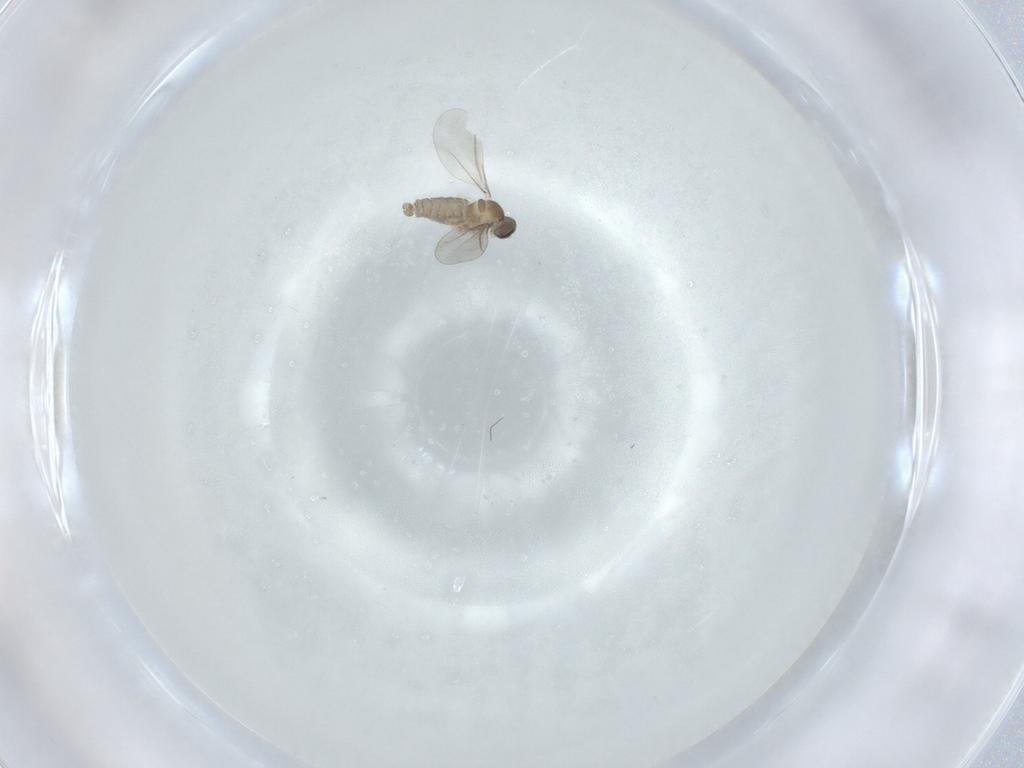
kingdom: Animalia
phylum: Arthropoda
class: Insecta
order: Diptera
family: Cecidomyiidae
